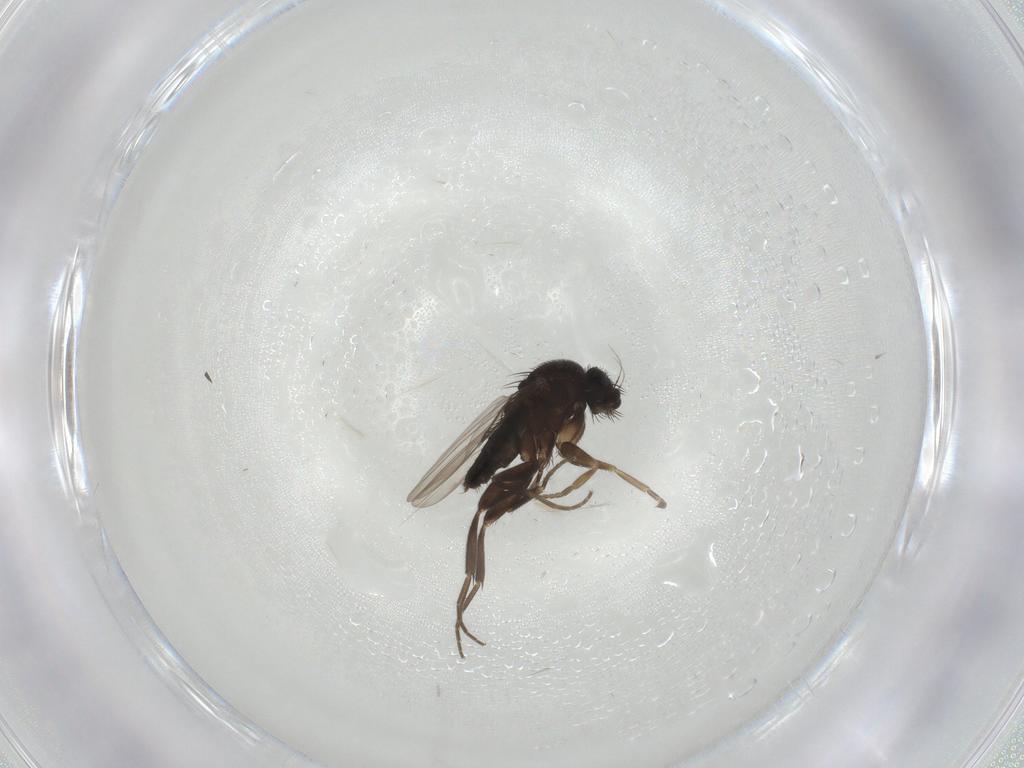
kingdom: Animalia
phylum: Arthropoda
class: Insecta
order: Diptera
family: Phoridae
